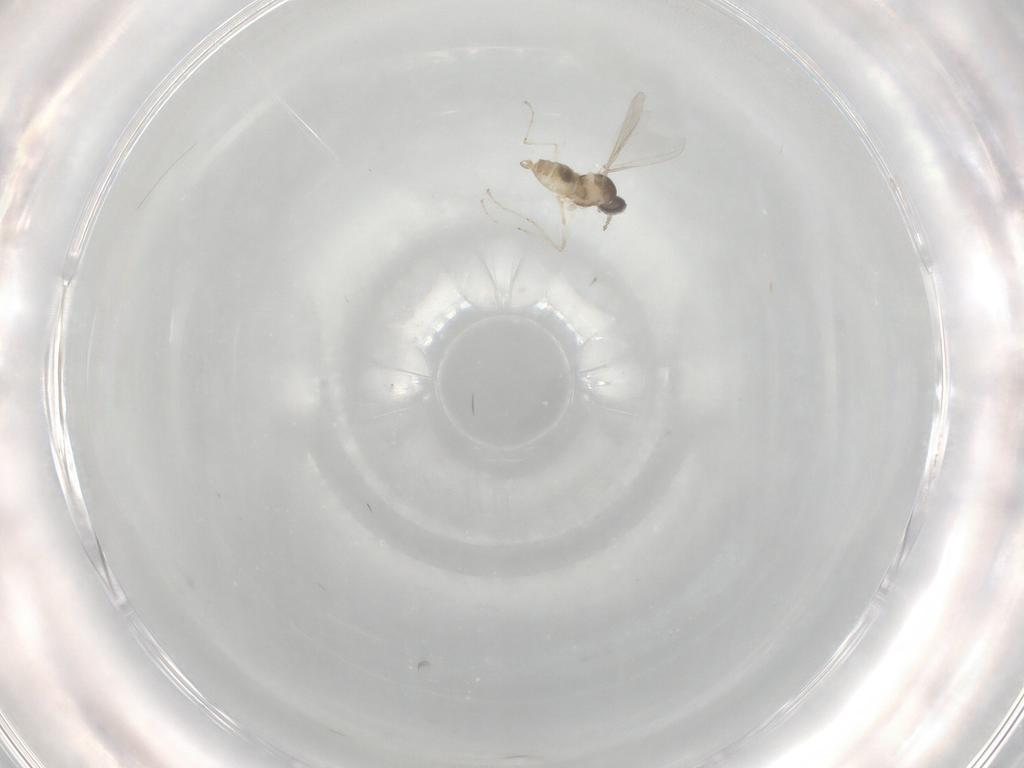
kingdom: Animalia
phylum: Arthropoda
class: Insecta
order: Diptera
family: Cecidomyiidae
